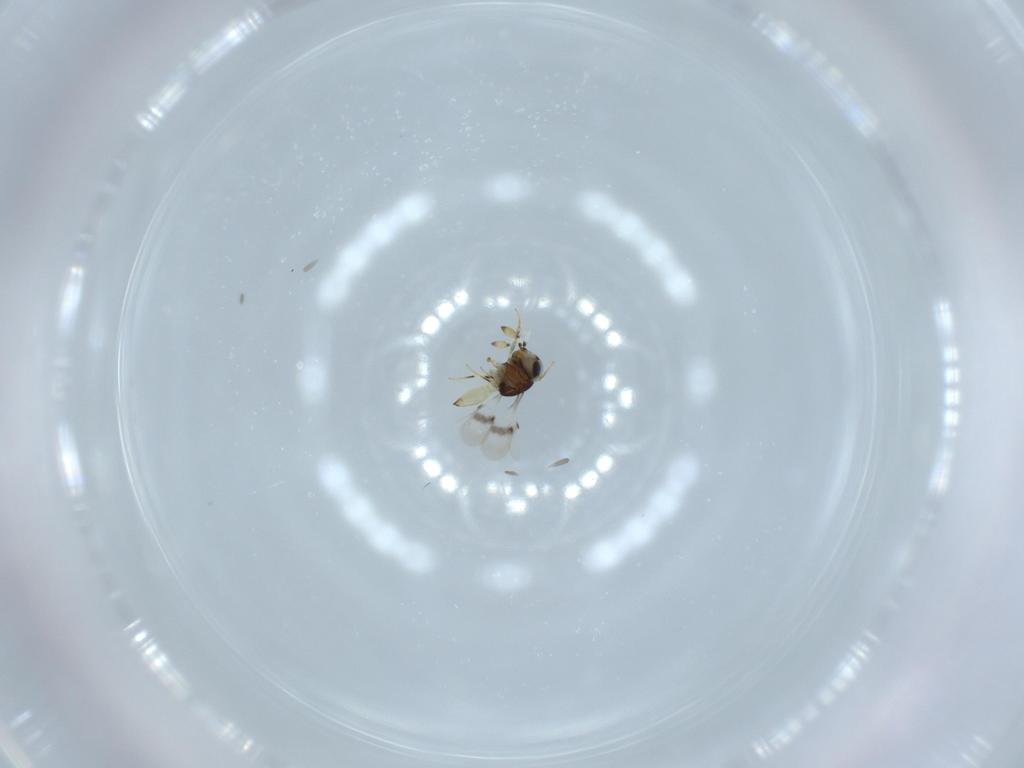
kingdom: Animalia
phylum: Arthropoda
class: Insecta
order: Hymenoptera
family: Scelionidae
